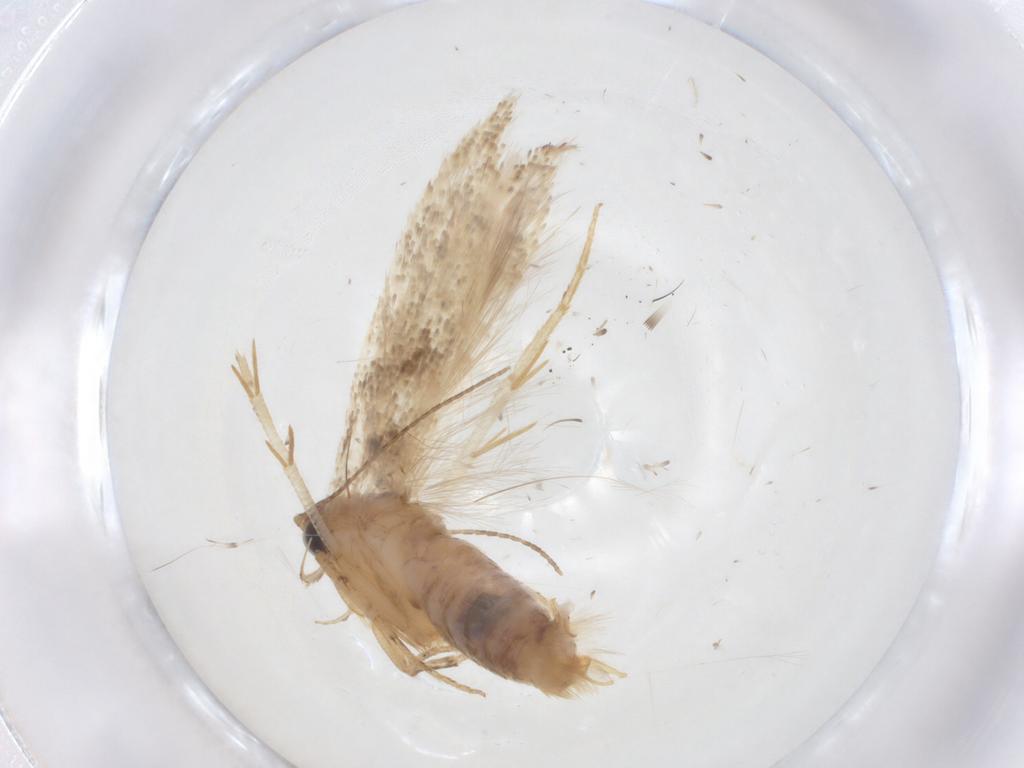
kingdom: Animalia
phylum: Arthropoda
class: Insecta
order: Lepidoptera
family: Gelechiidae
